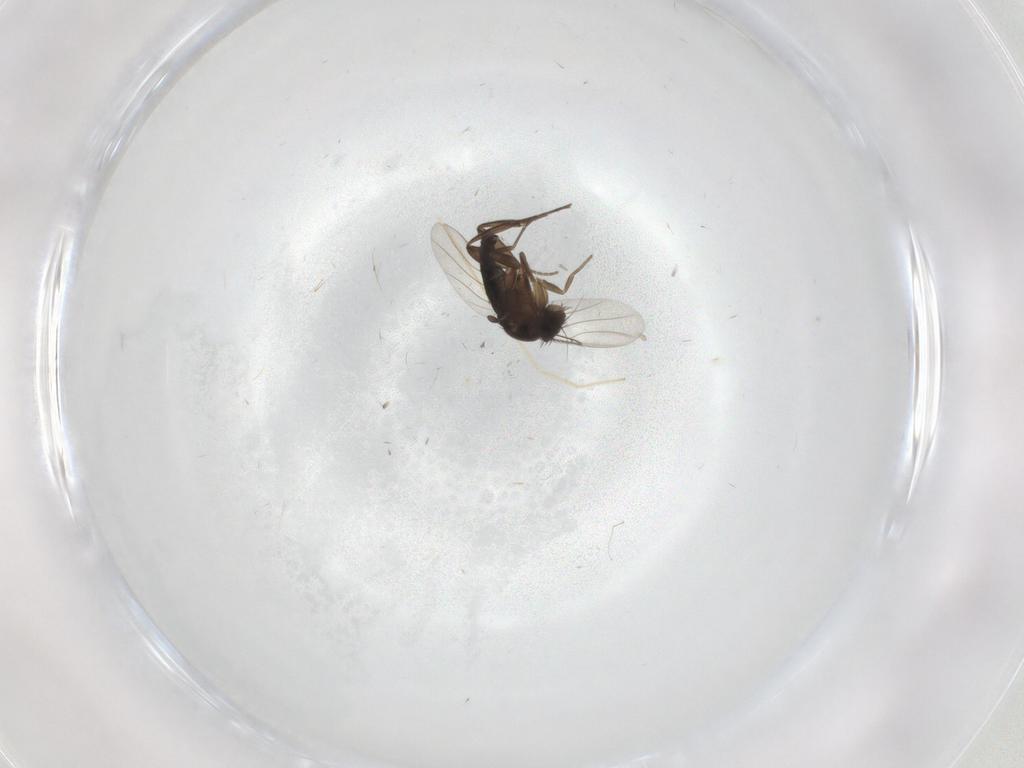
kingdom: Animalia
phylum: Arthropoda
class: Insecta
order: Diptera
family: Phoridae
